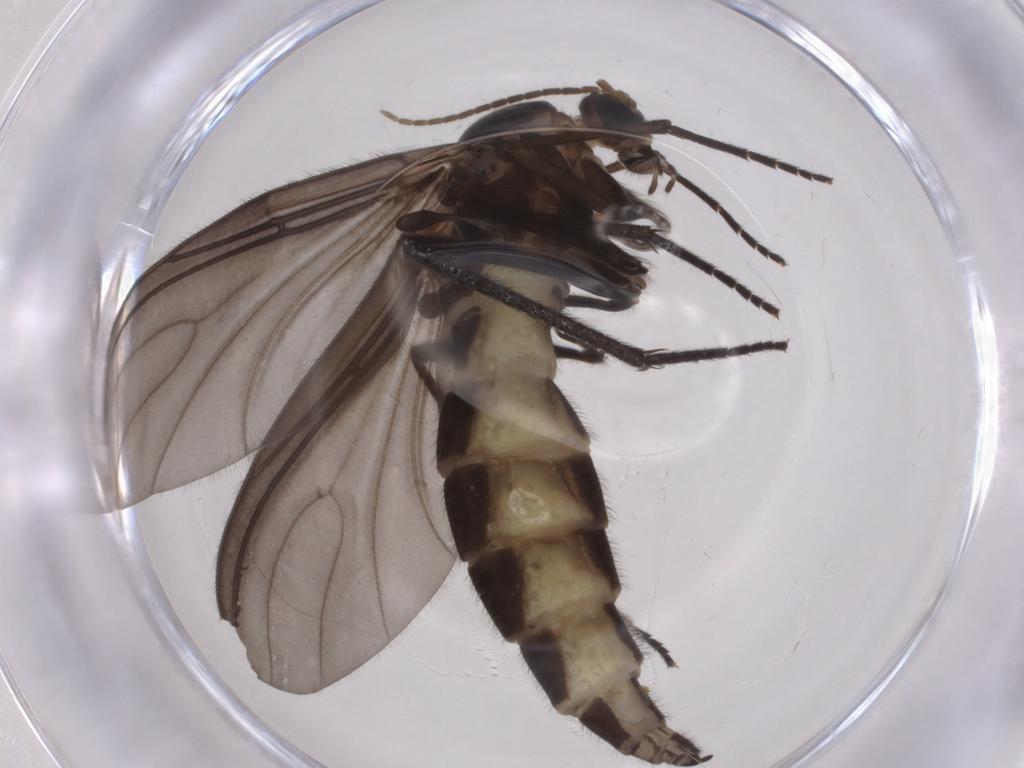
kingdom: Animalia
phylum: Arthropoda
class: Insecta
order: Diptera
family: Sciaridae
